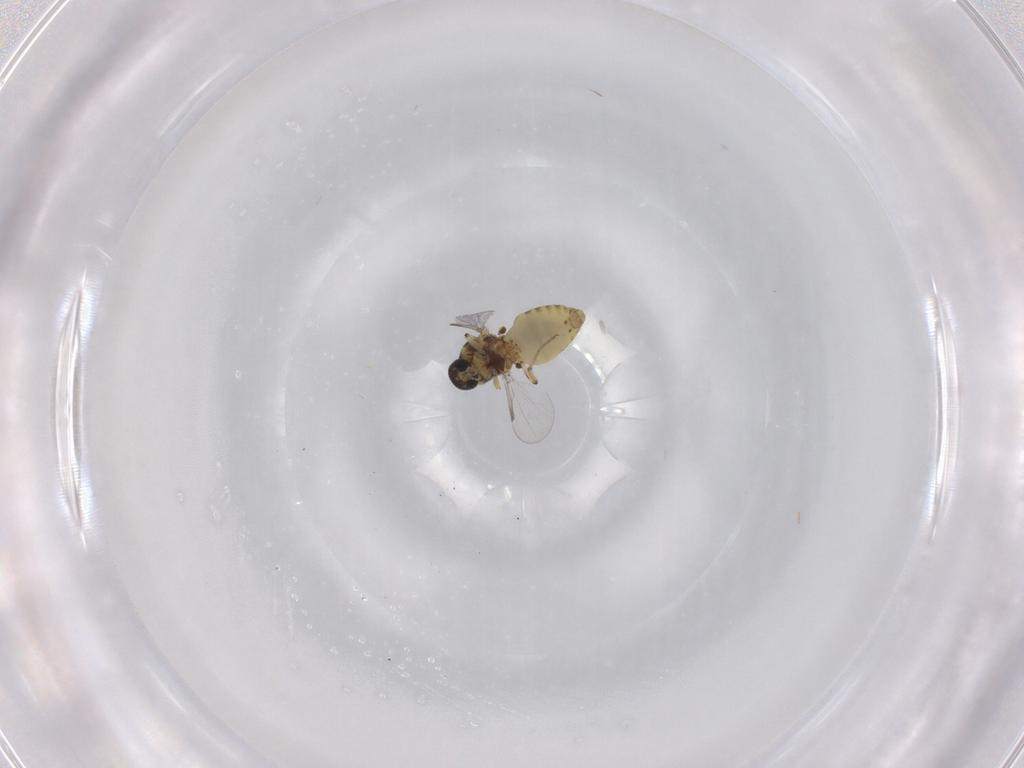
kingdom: Animalia
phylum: Arthropoda
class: Insecta
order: Diptera
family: Ceratopogonidae
